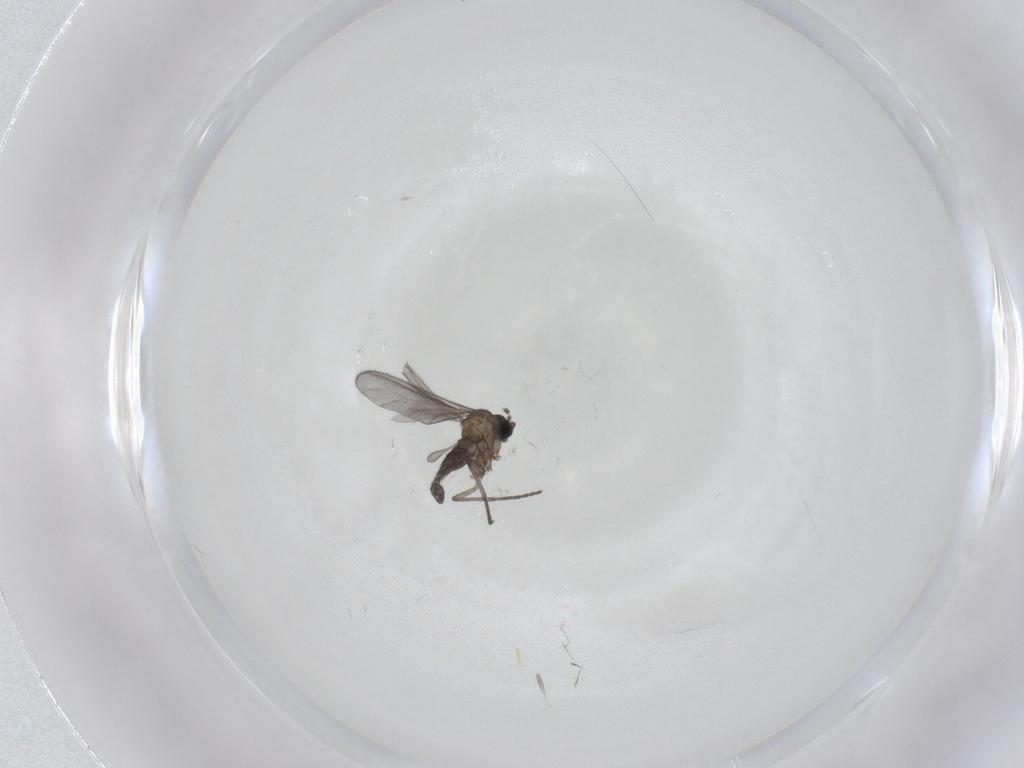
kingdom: Animalia
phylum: Arthropoda
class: Insecta
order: Diptera
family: Sciaridae
